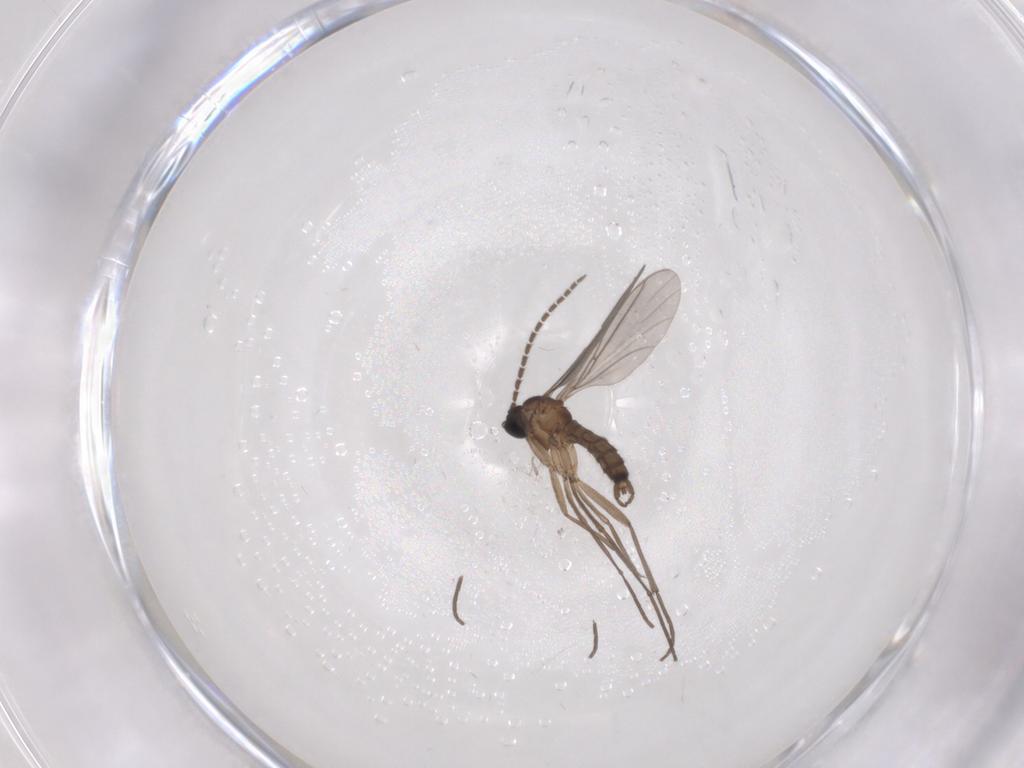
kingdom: Animalia
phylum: Arthropoda
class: Insecta
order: Diptera
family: Sciaridae
